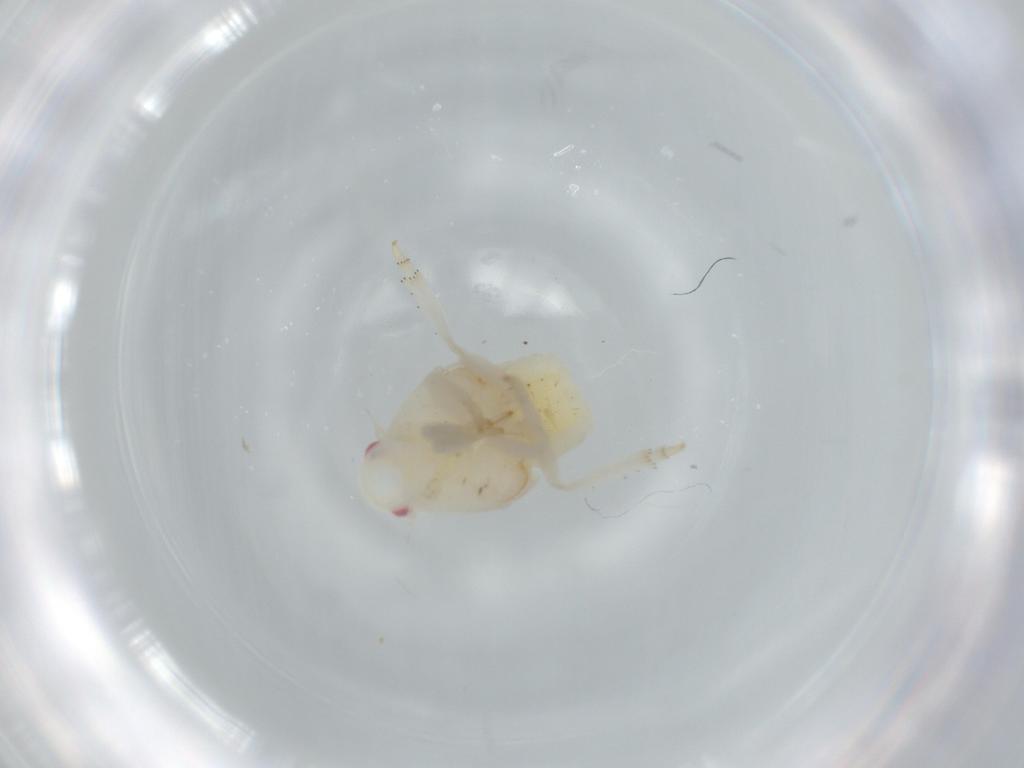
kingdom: Animalia
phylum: Arthropoda
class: Insecta
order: Hemiptera
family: Flatidae
